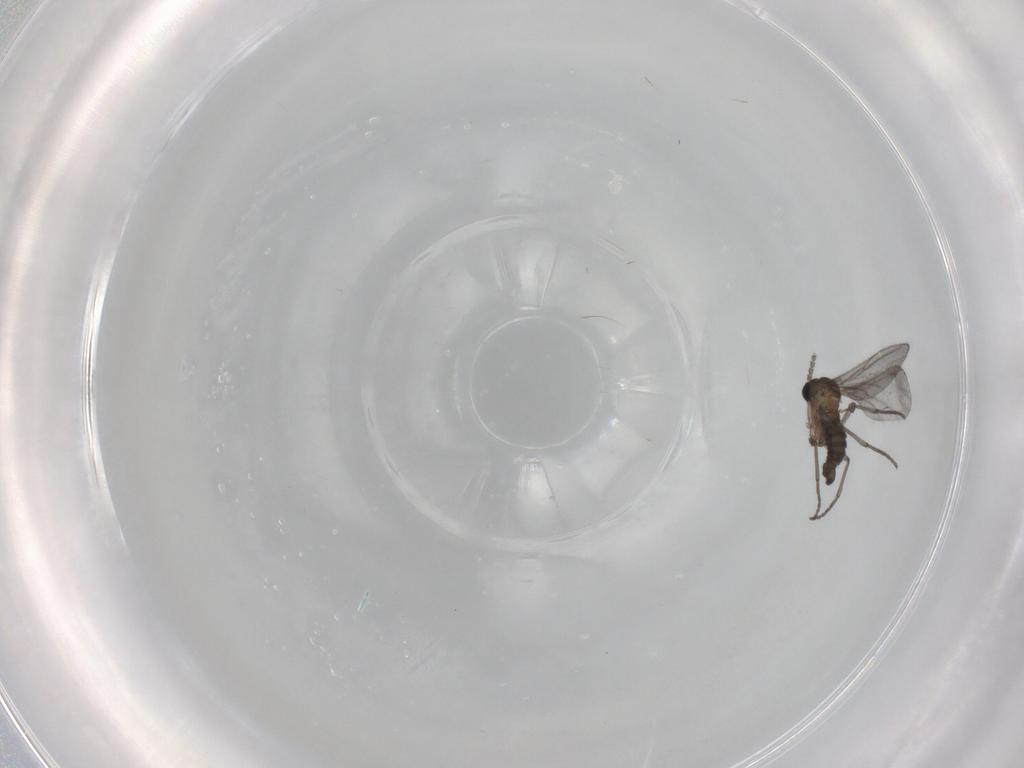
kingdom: Animalia
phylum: Arthropoda
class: Insecta
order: Diptera
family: Sciaridae
